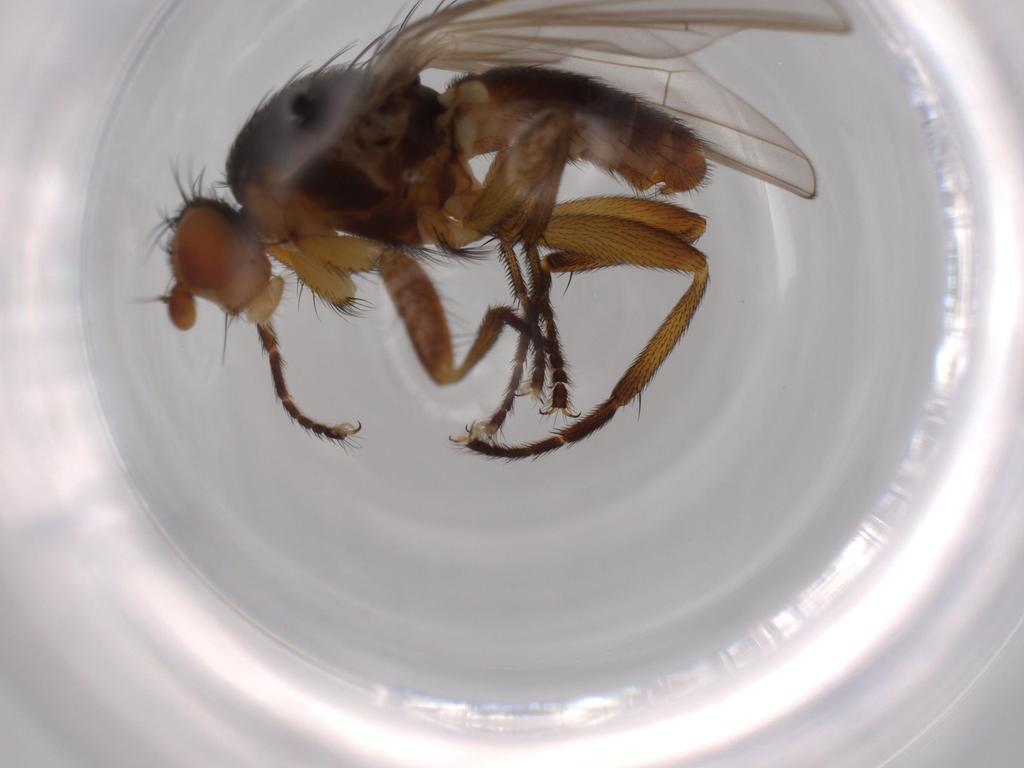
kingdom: Animalia
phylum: Arthropoda
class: Insecta
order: Diptera
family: Heleomyzidae
